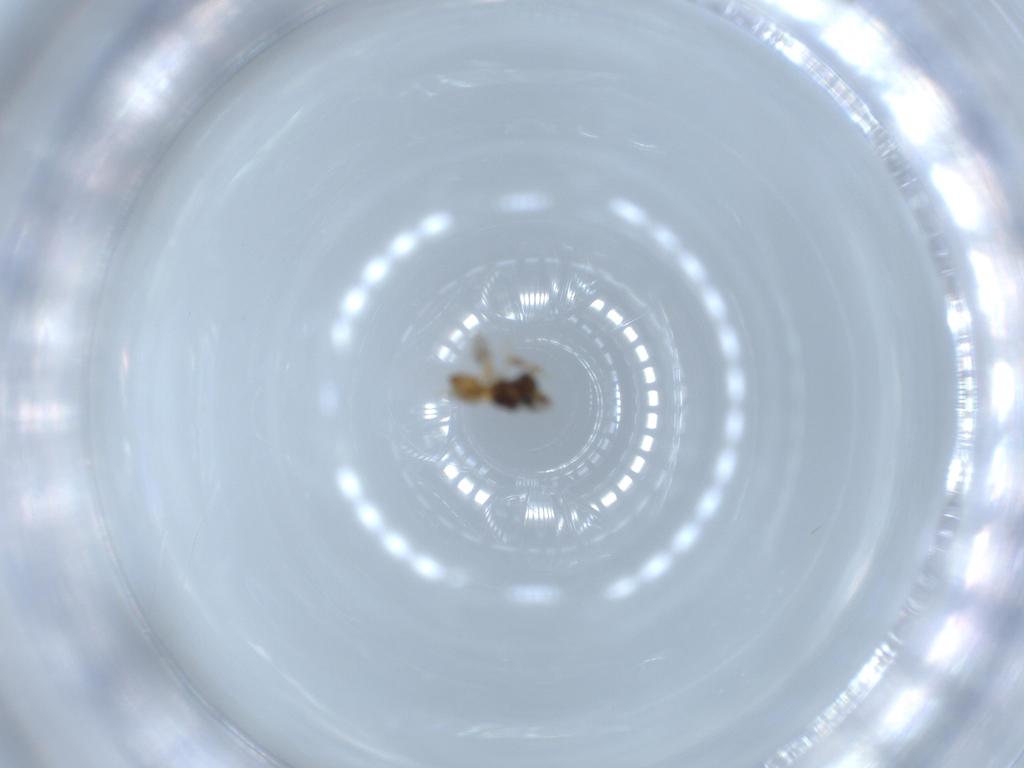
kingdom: Animalia
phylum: Arthropoda
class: Insecta
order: Hymenoptera
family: Scelionidae
